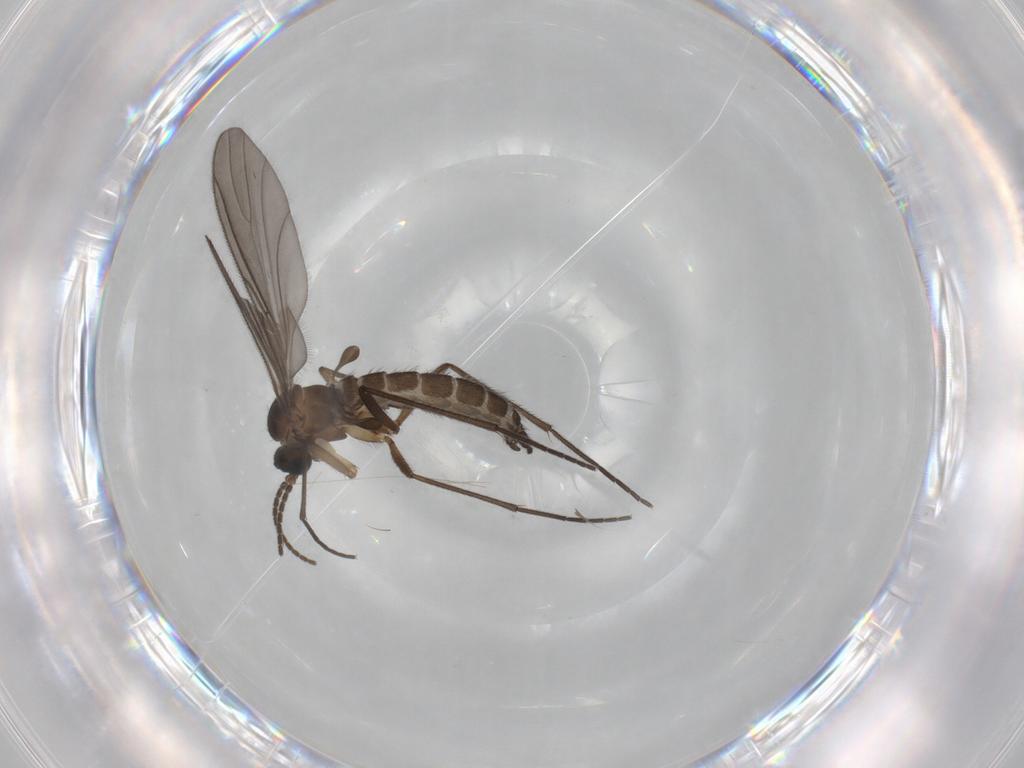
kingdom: Animalia
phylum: Arthropoda
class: Insecta
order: Diptera
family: Sciaridae
